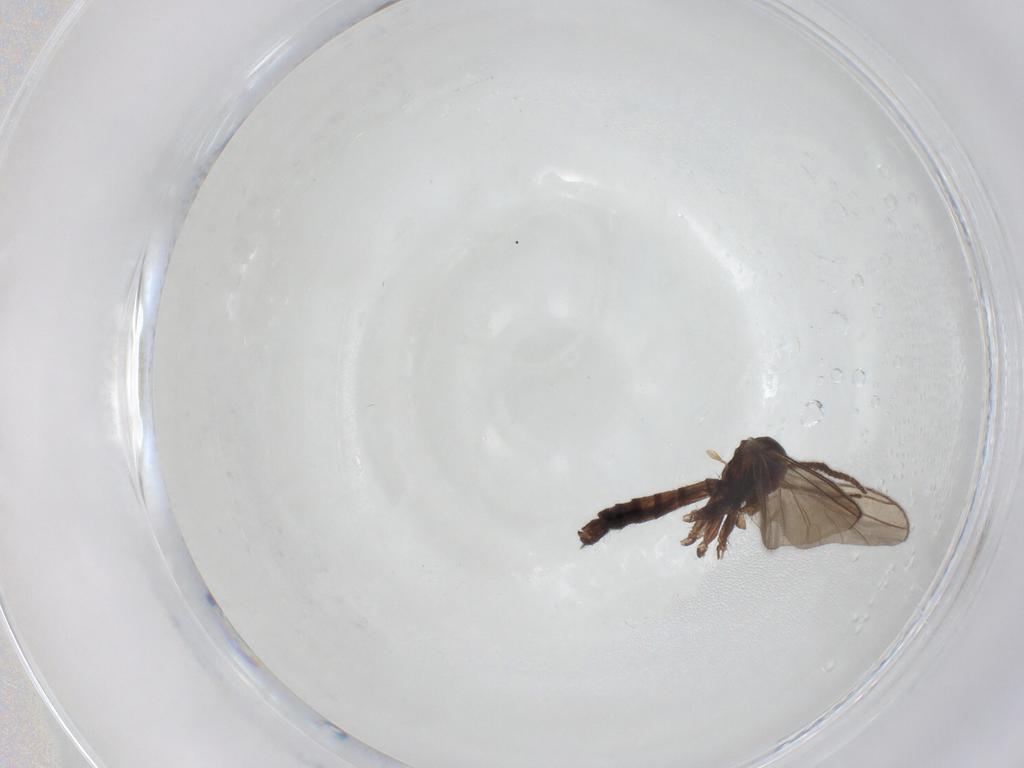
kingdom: Animalia
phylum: Arthropoda
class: Insecta
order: Diptera
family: Mycetophilidae
